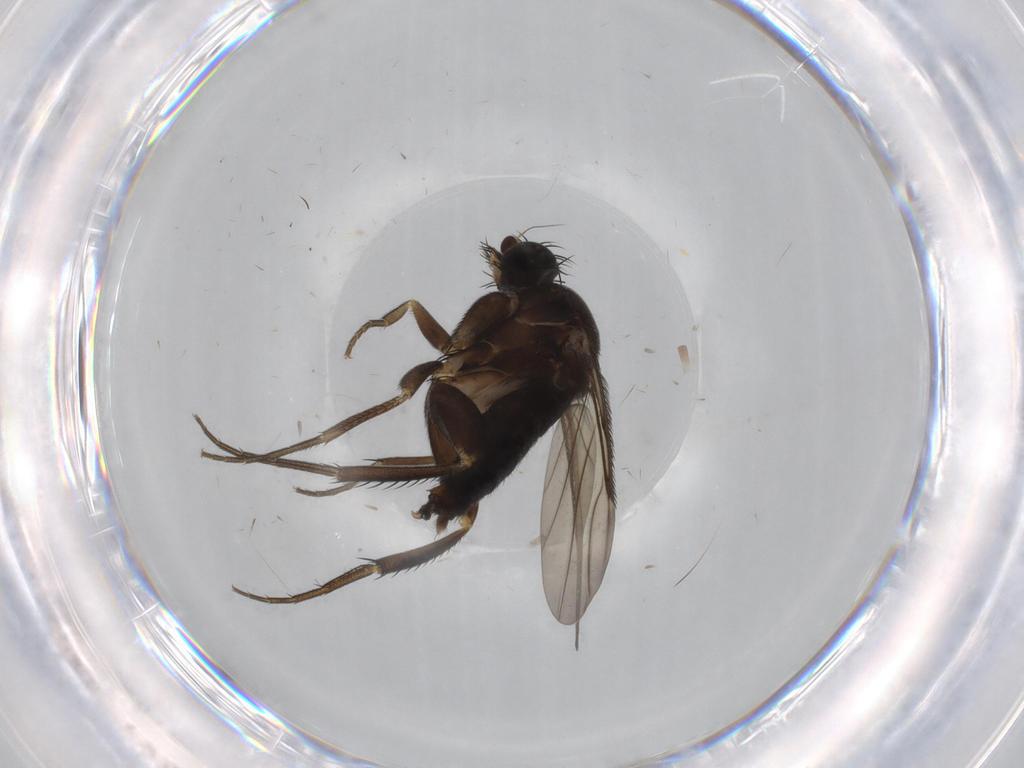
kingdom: Animalia
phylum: Arthropoda
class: Insecta
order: Diptera
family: Phoridae
